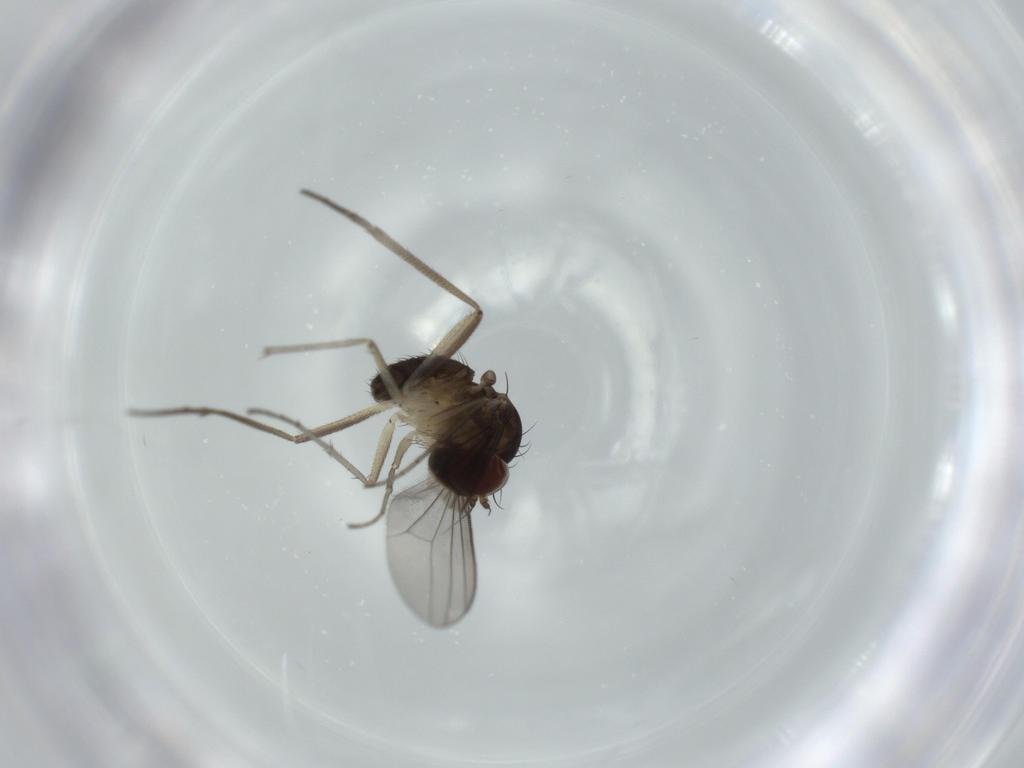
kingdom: Animalia
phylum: Arthropoda
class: Insecta
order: Diptera
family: Dolichopodidae
